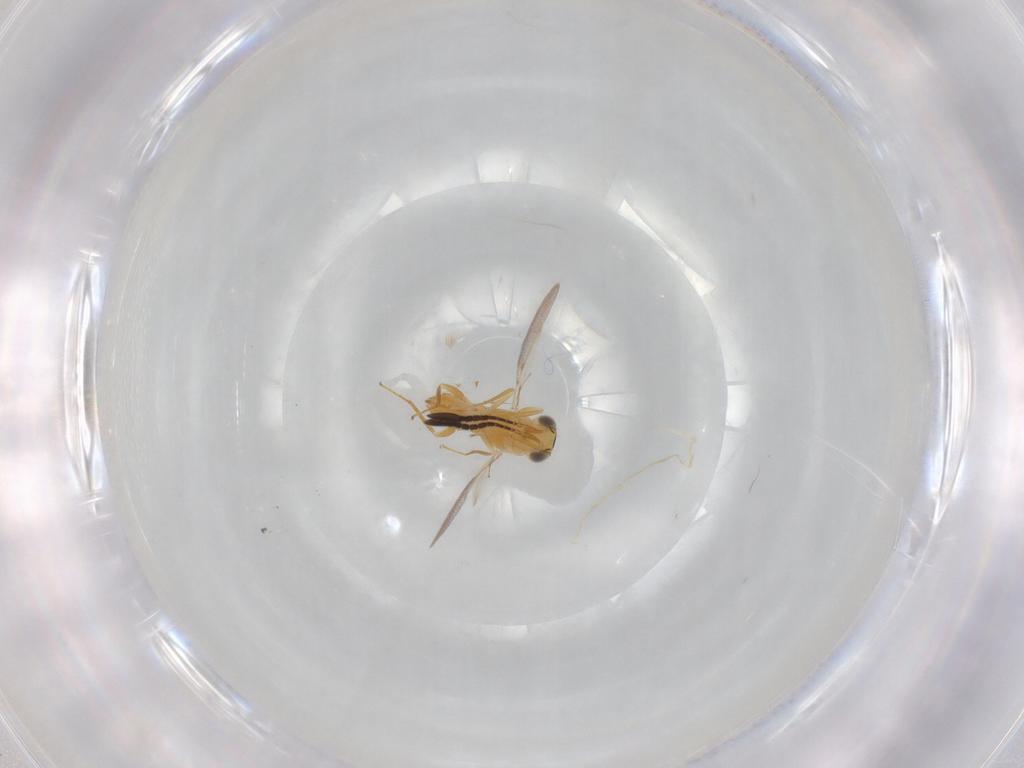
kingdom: Animalia
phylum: Arthropoda
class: Insecta
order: Hymenoptera
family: Mymaridae
